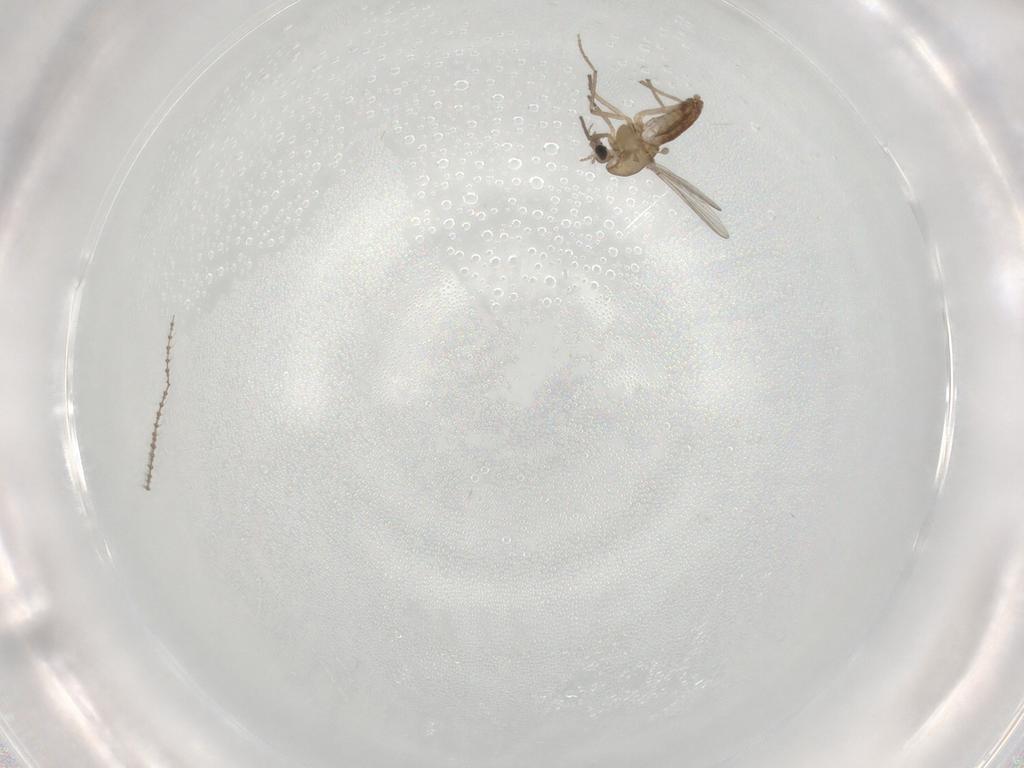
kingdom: Animalia
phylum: Arthropoda
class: Insecta
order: Diptera
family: Chironomidae
